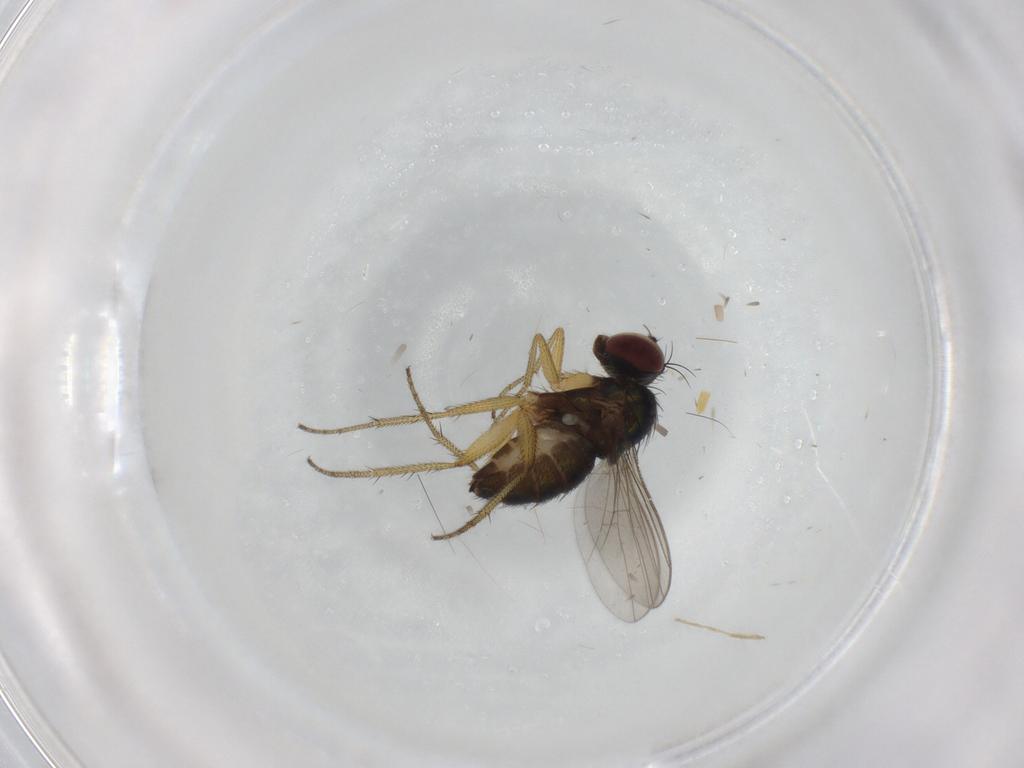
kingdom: Animalia
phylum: Arthropoda
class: Insecta
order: Diptera
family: Dolichopodidae
